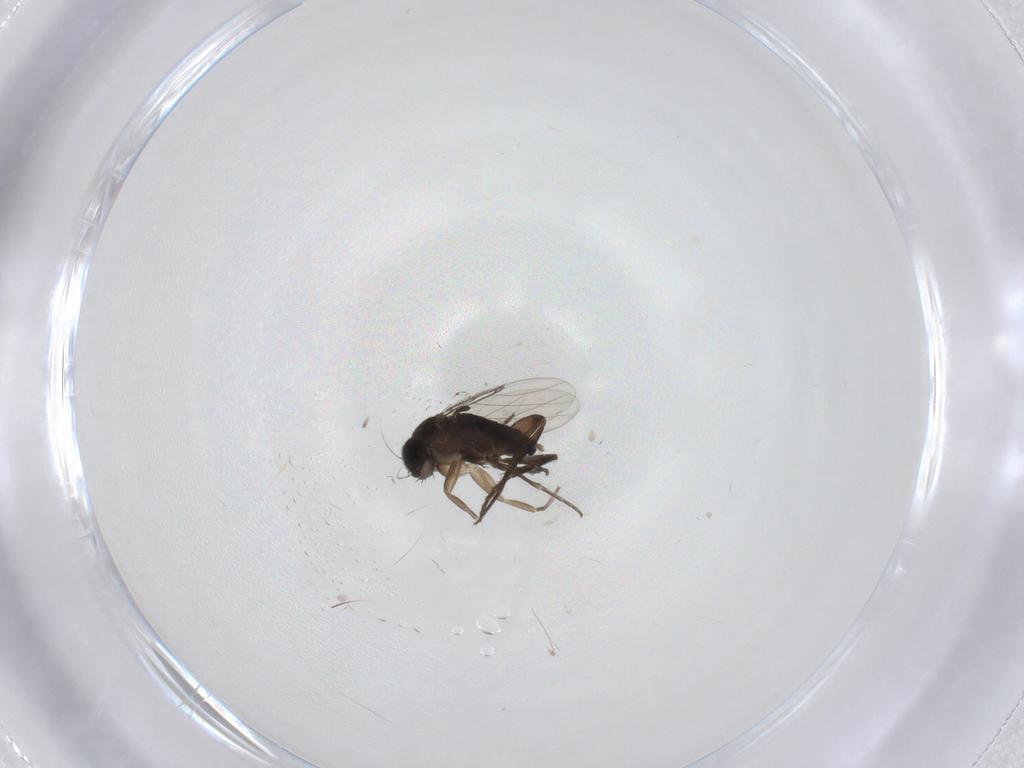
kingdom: Animalia
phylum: Arthropoda
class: Insecta
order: Diptera
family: Phoridae
